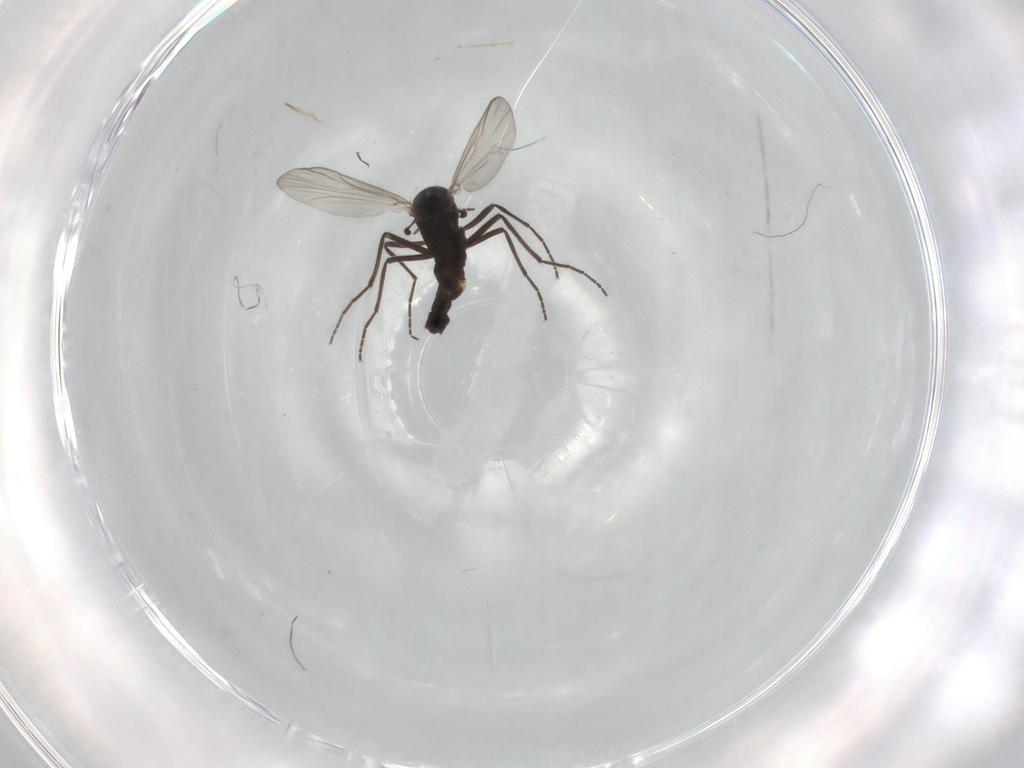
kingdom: Animalia
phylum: Arthropoda
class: Insecta
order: Diptera
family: Chironomidae
